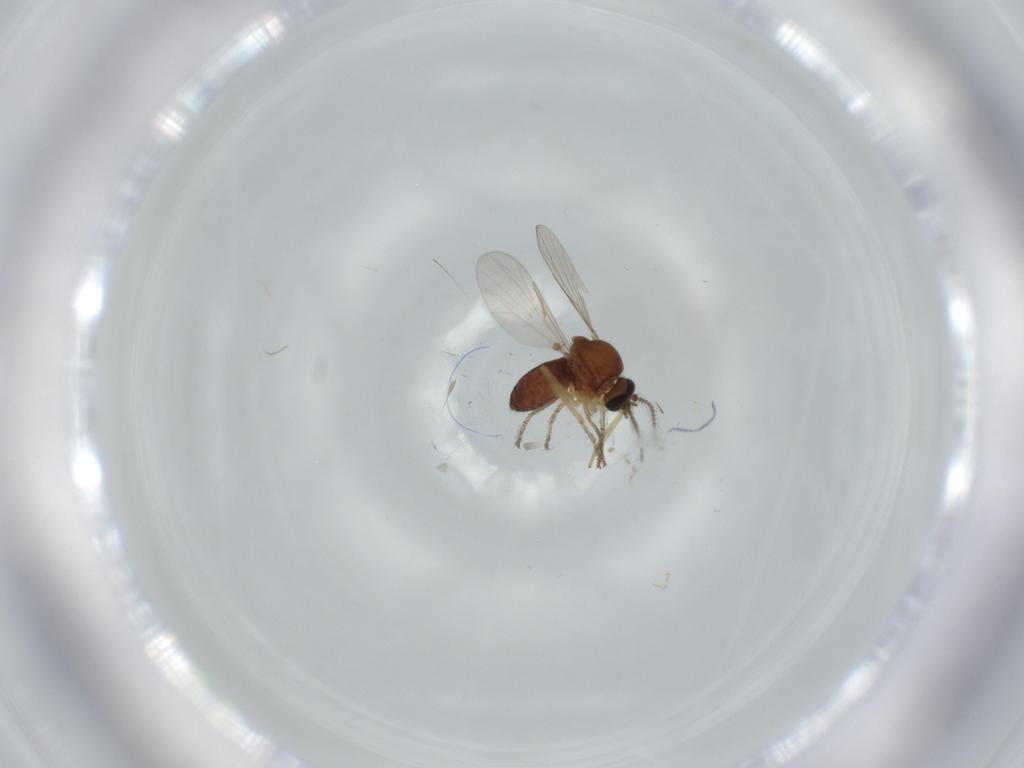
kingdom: Animalia
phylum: Arthropoda
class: Insecta
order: Diptera
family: Ceratopogonidae
